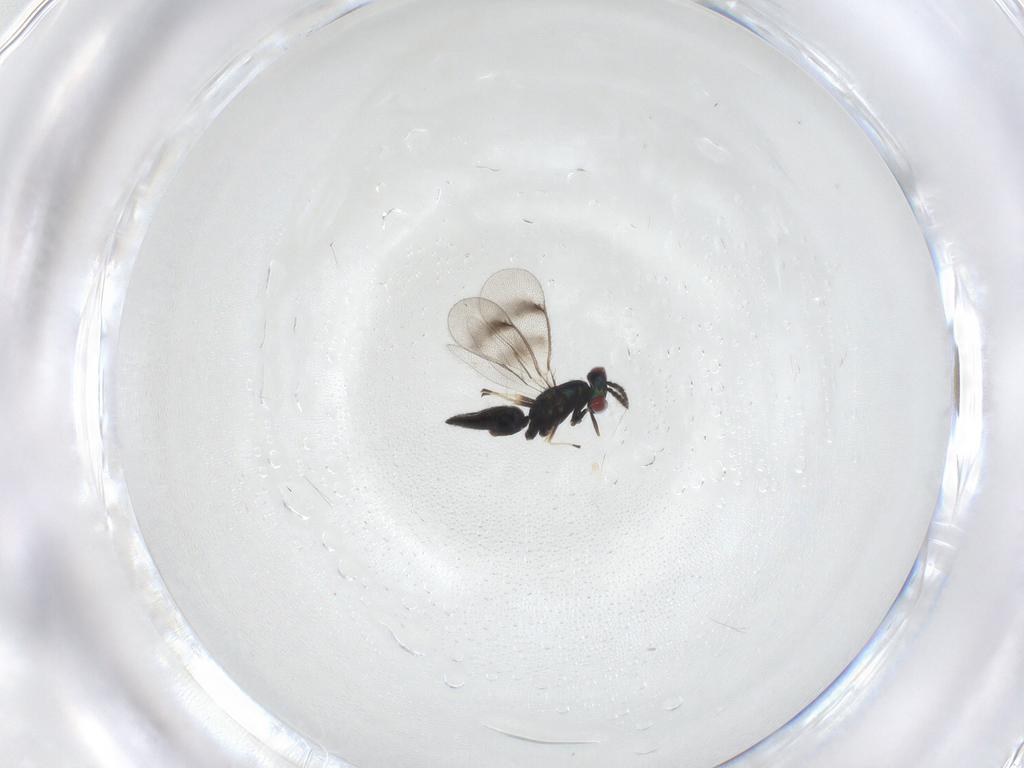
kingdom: Animalia
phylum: Arthropoda
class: Insecta
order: Hymenoptera
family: Eulophidae
